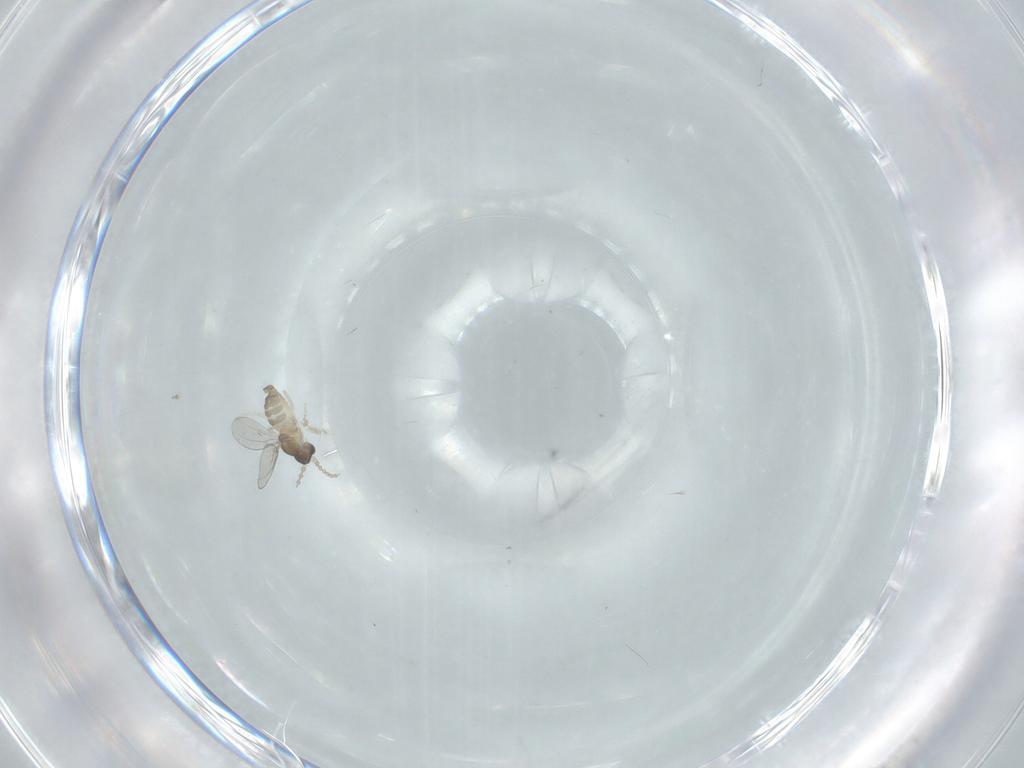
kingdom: Animalia
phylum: Arthropoda
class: Insecta
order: Diptera
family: Cecidomyiidae
